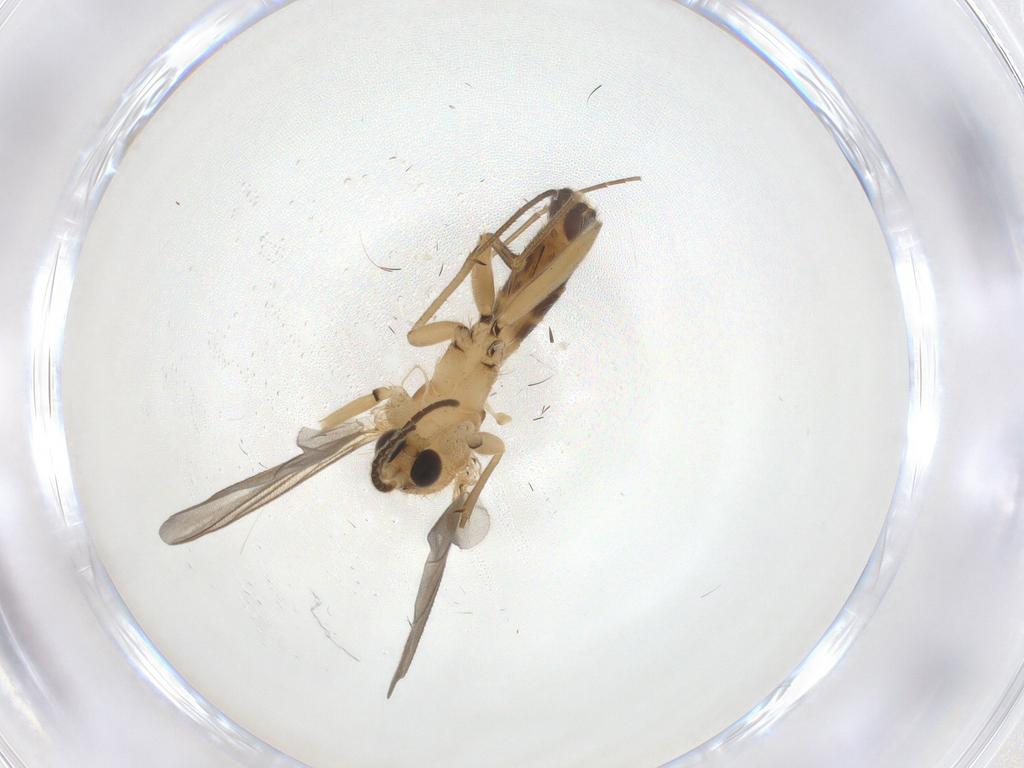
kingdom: Animalia
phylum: Arthropoda
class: Insecta
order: Diptera
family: Mycetophilidae
